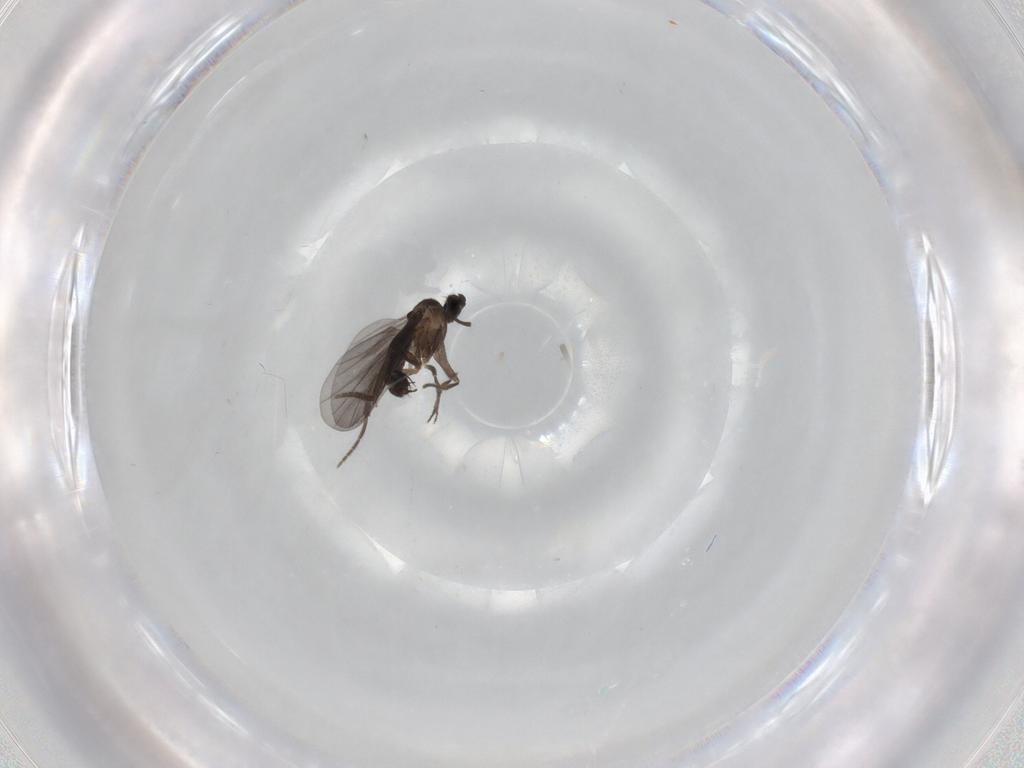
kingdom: Animalia
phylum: Arthropoda
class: Insecta
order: Diptera
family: Phoridae
